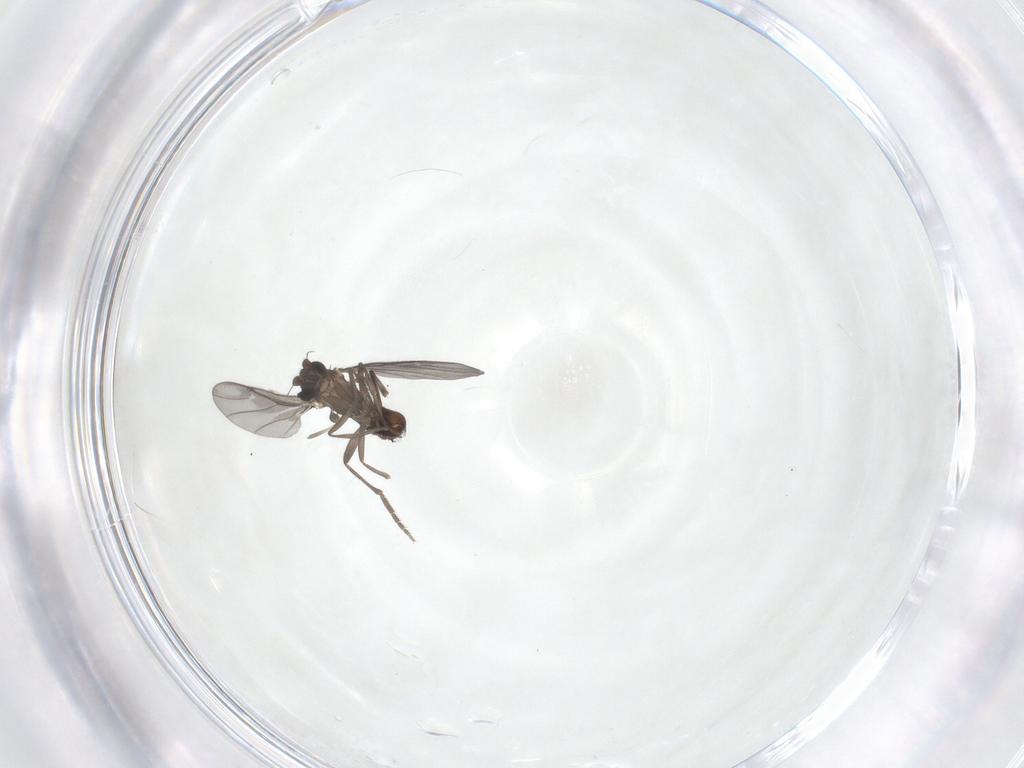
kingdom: Animalia
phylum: Arthropoda
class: Insecta
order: Diptera
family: Phoridae
